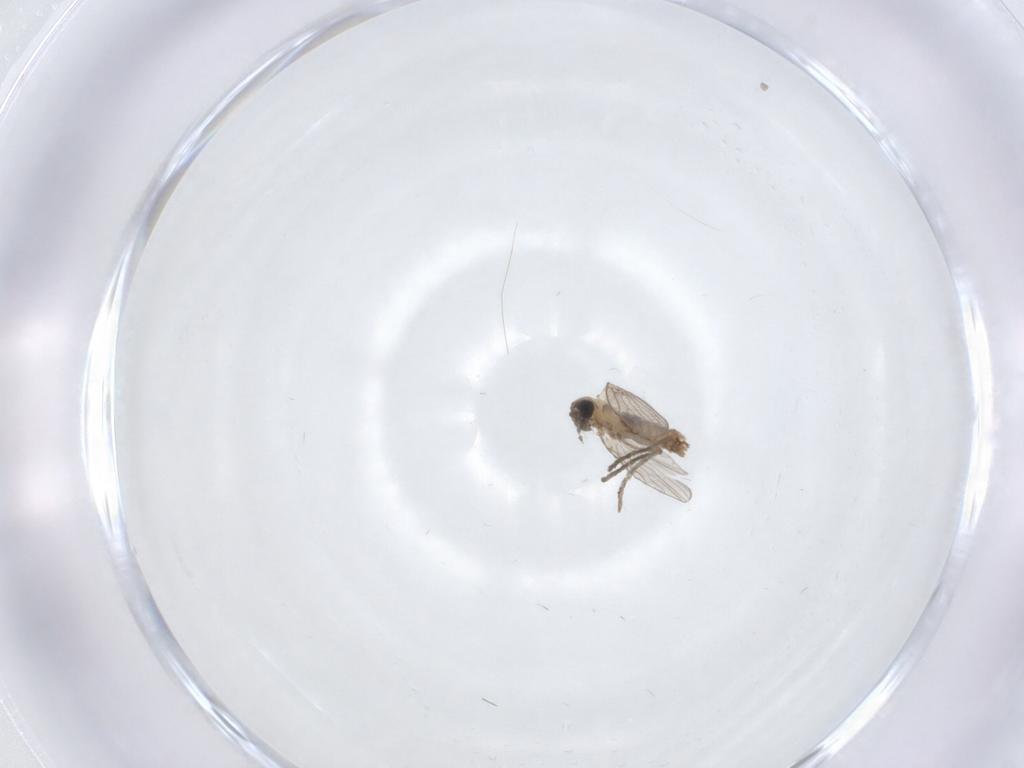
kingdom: Animalia
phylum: Arthropoda
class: Insecta
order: Diptera
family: Psychodidae
